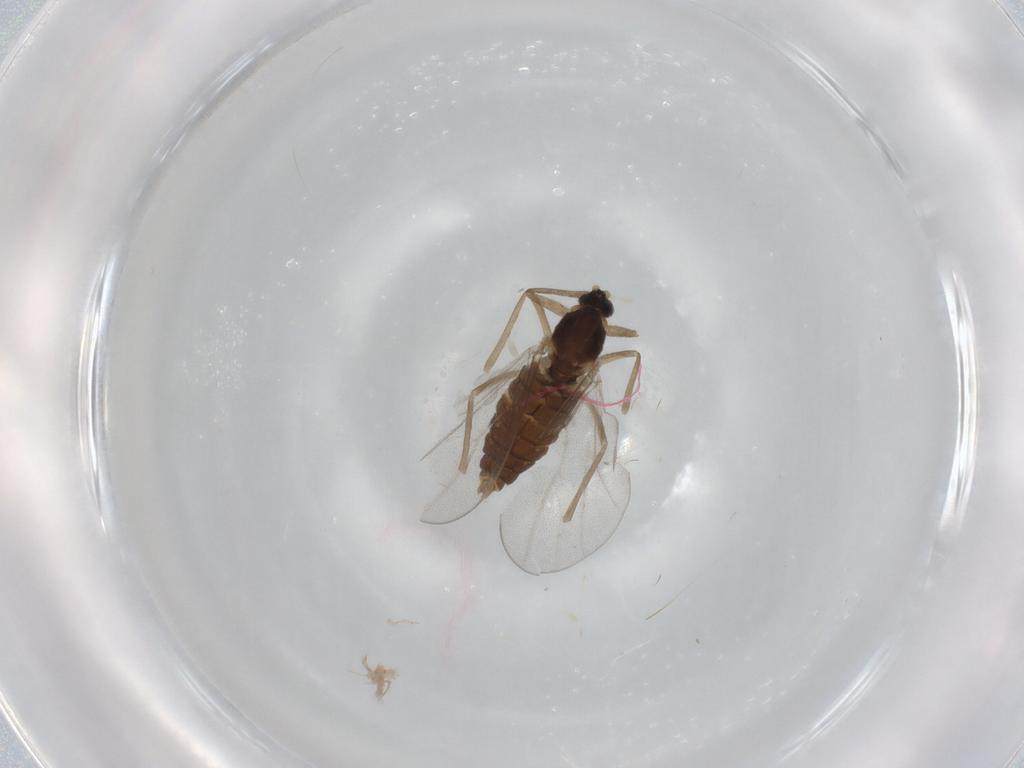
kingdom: Animalia
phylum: Arthropoda
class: Insecta
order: Diptera
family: Cecidomyiidae
